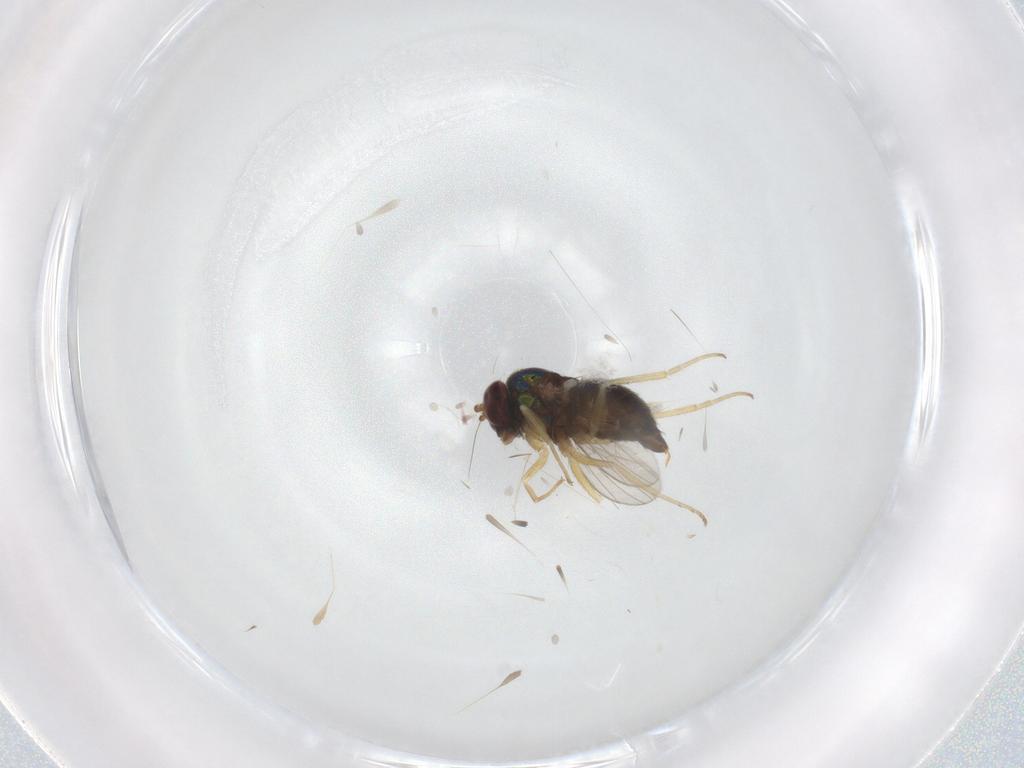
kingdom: Animalia
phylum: Arthropoda
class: Insecta
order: Diptera
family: Dolichopodidae
